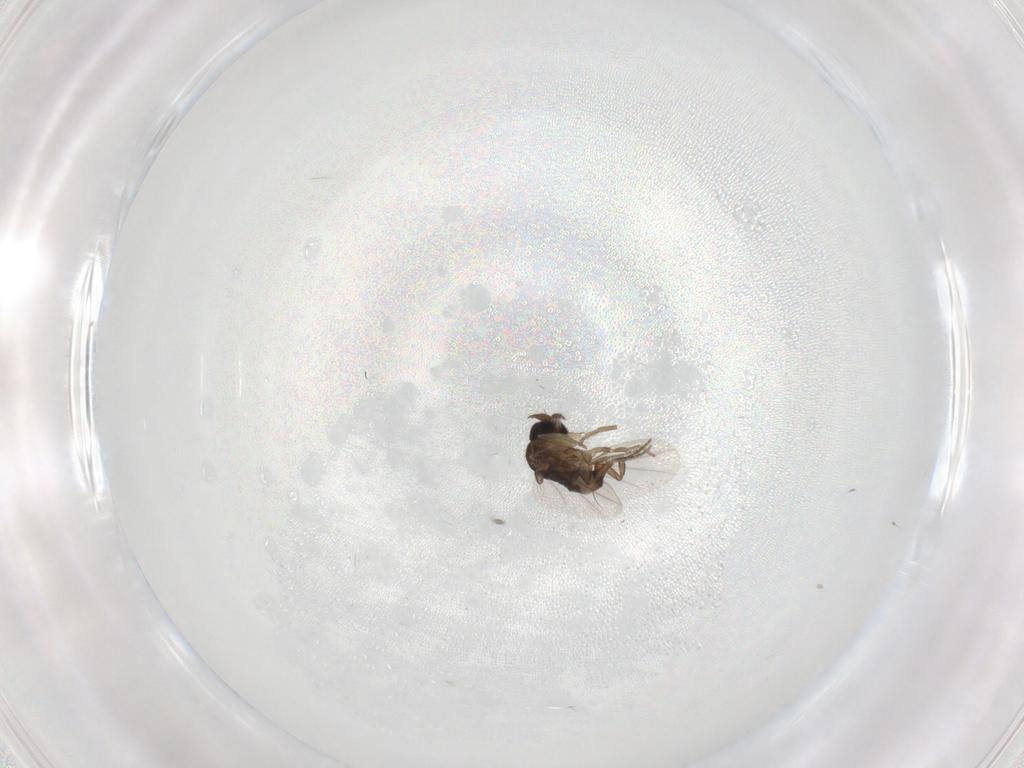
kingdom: Animalia
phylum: Arthropoda
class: Insecta
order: Diptera
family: Phoridae
